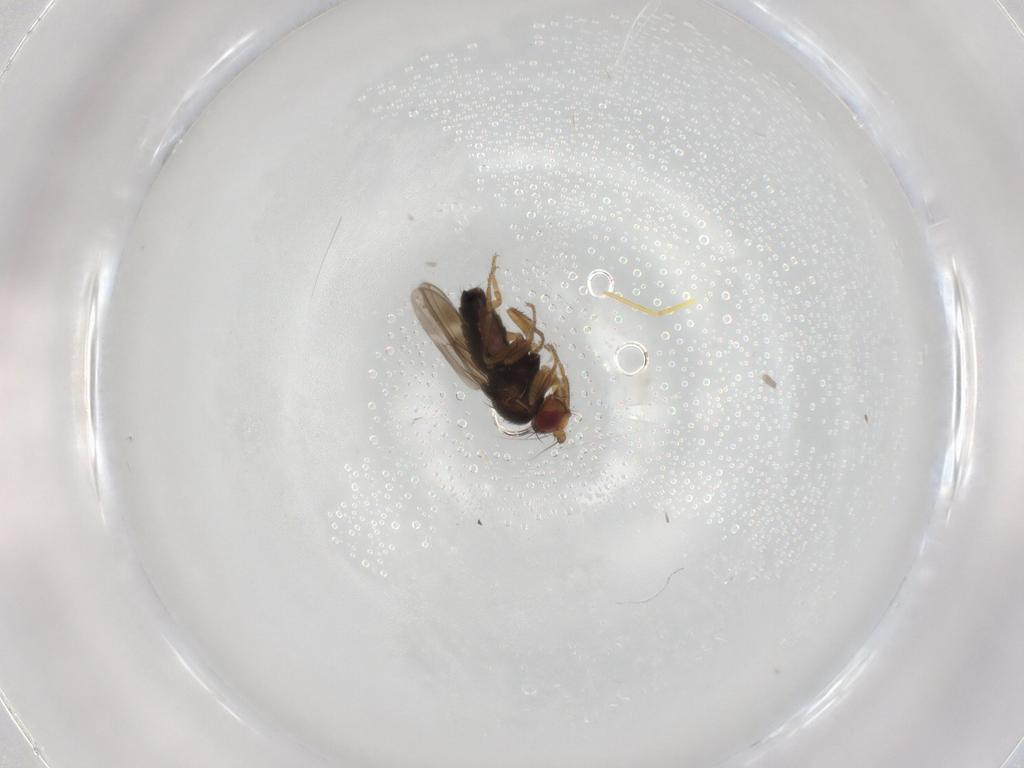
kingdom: Animalia
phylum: Arthropoda
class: Insecta
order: Diptera
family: Sphaeroceridae
